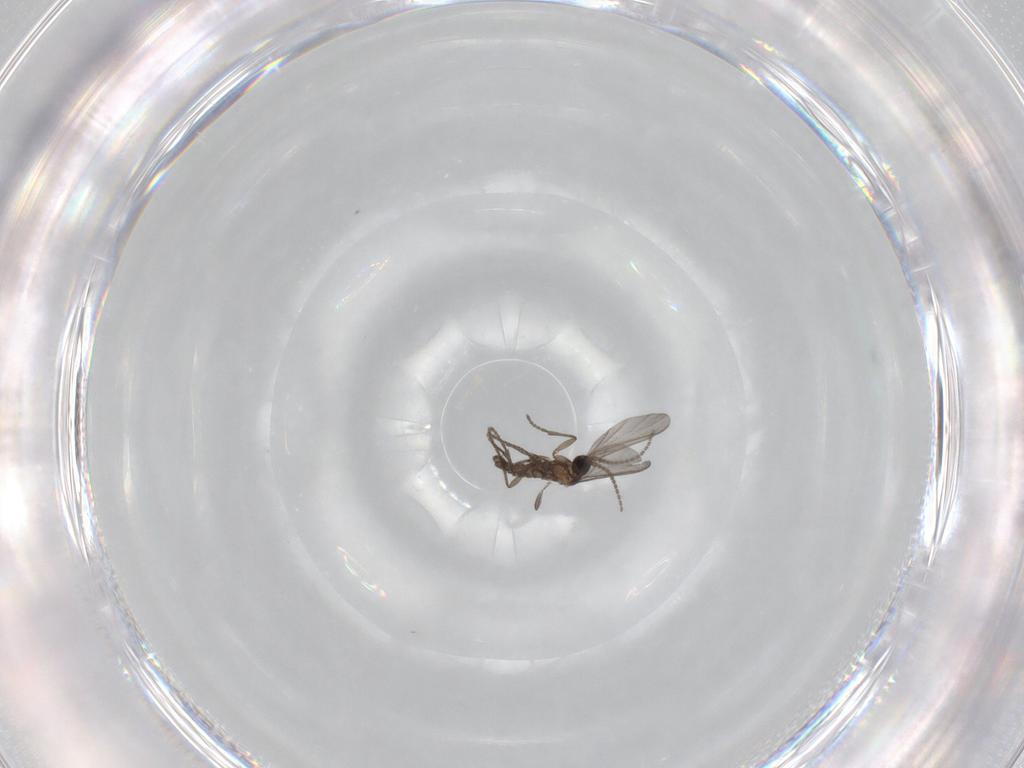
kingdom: Animalia
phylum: Arthropoda
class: Insecta
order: Diptera
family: Sciaridae
